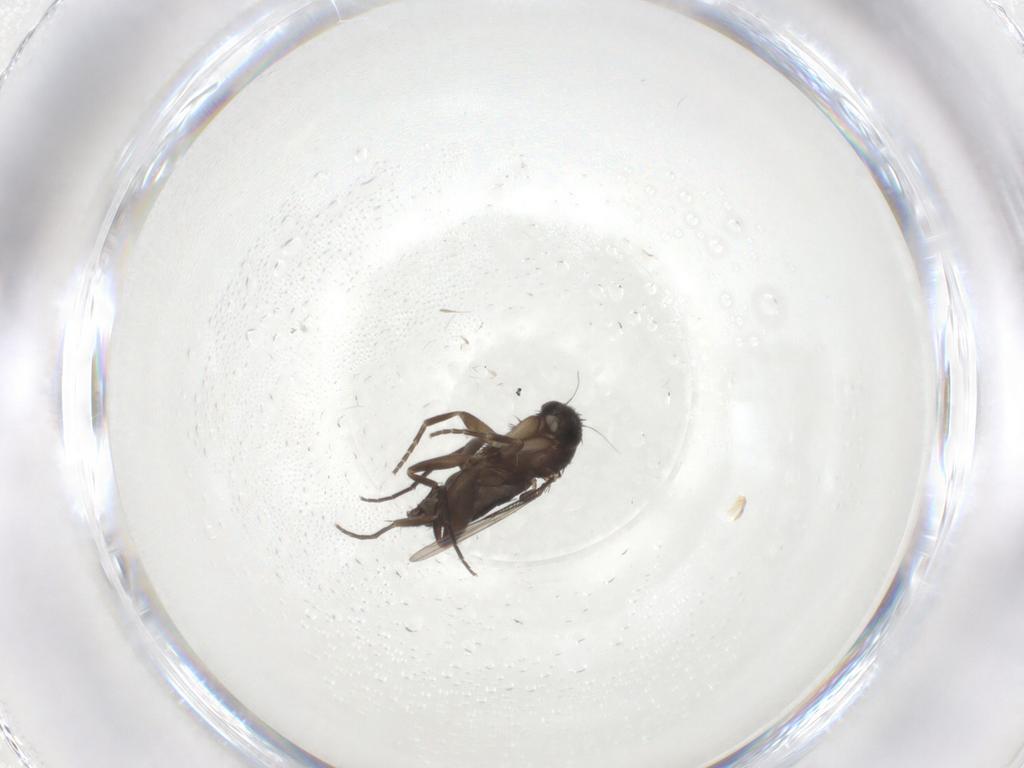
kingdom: Animalia
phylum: Arthropoda
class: Insecta
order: Diptera
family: Phoridae
